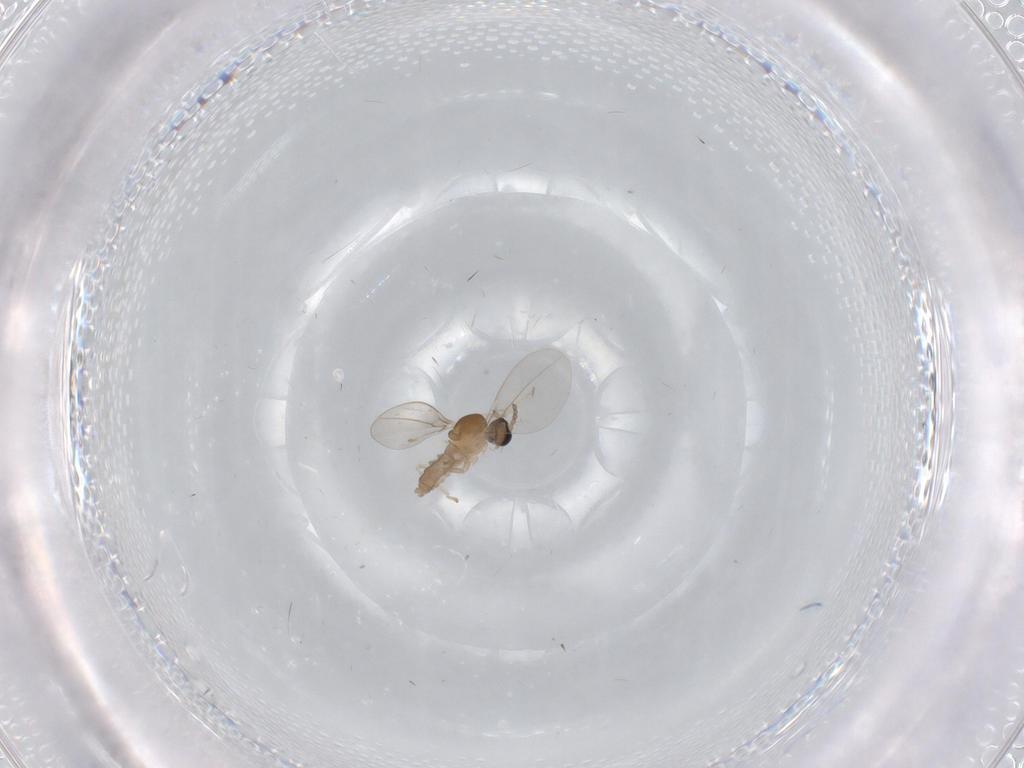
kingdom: Animalia
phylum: Arthropoda
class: Insecta
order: Diptera
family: Cecidomyiidae
